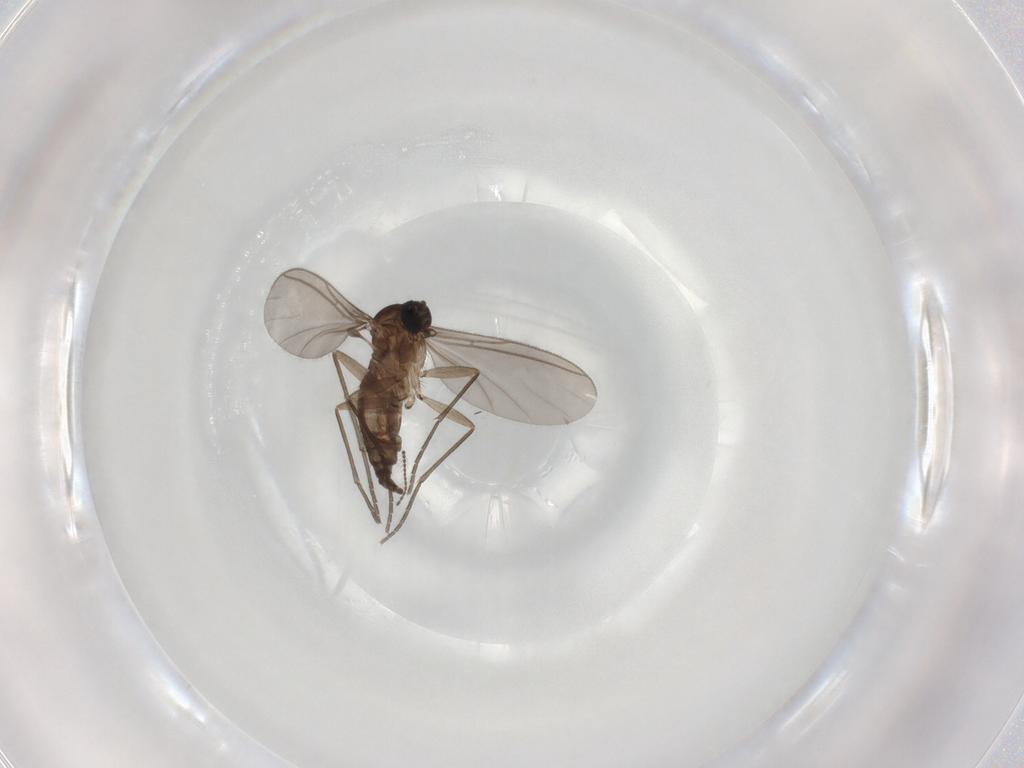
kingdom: Animalia
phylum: Arthropoda
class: Insecta
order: Diptera
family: Sciaridae
